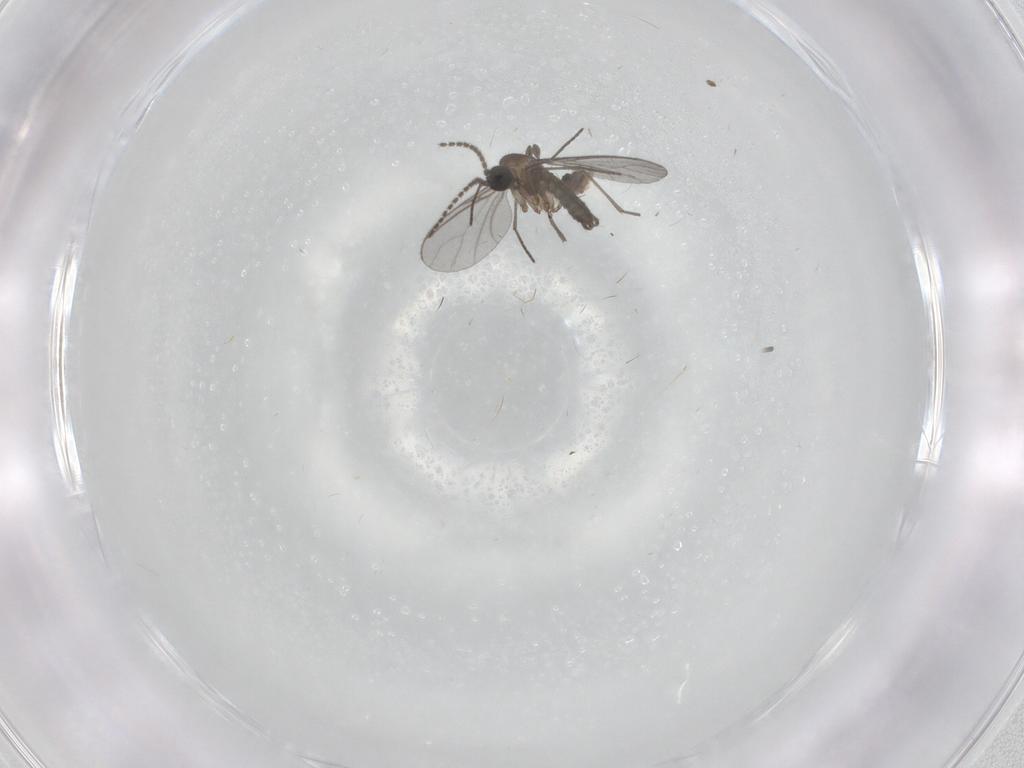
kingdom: Animalia
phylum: Arthropoda
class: Insecta
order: Diptera
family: Sciaridae
